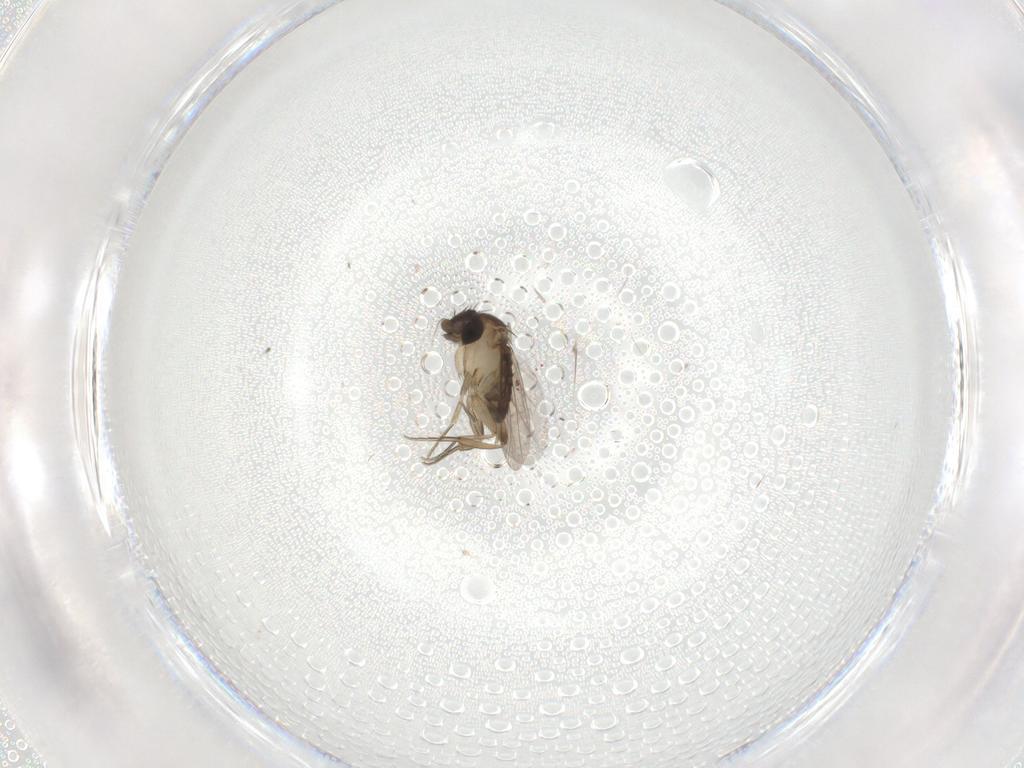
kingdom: Animalia
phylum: Arthropoda
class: Insecta
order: Diptera
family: Phoridae
